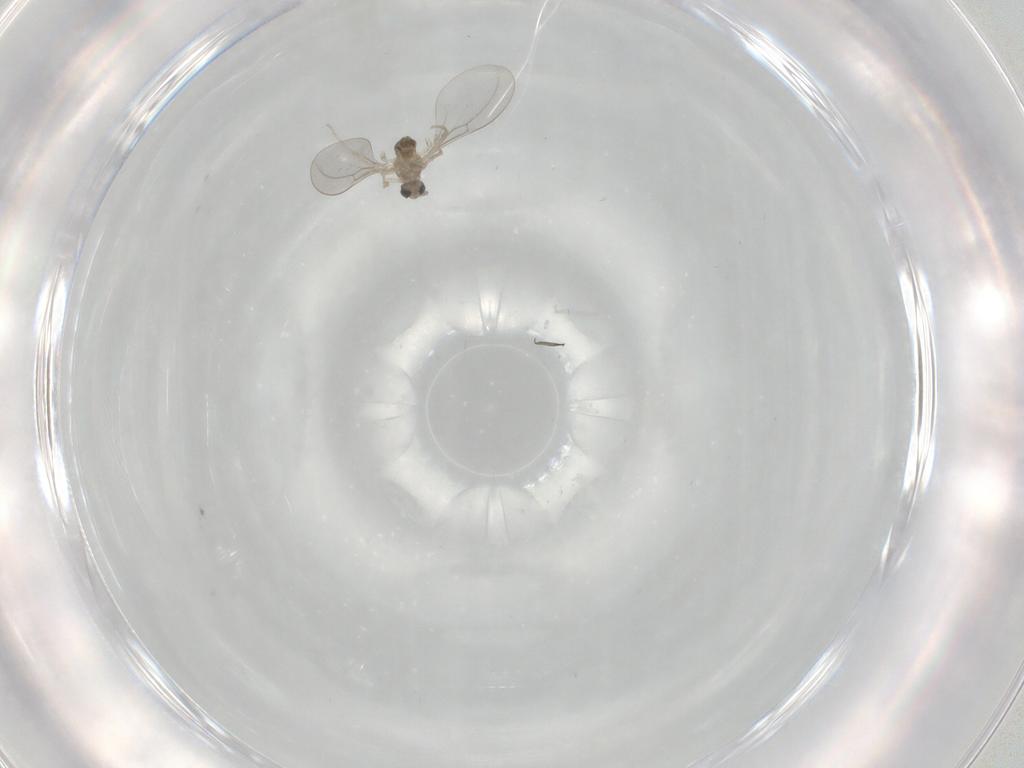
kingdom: Animalia
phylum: Arthropoda
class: Insecta
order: Diptera
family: Cecidomyiidae
